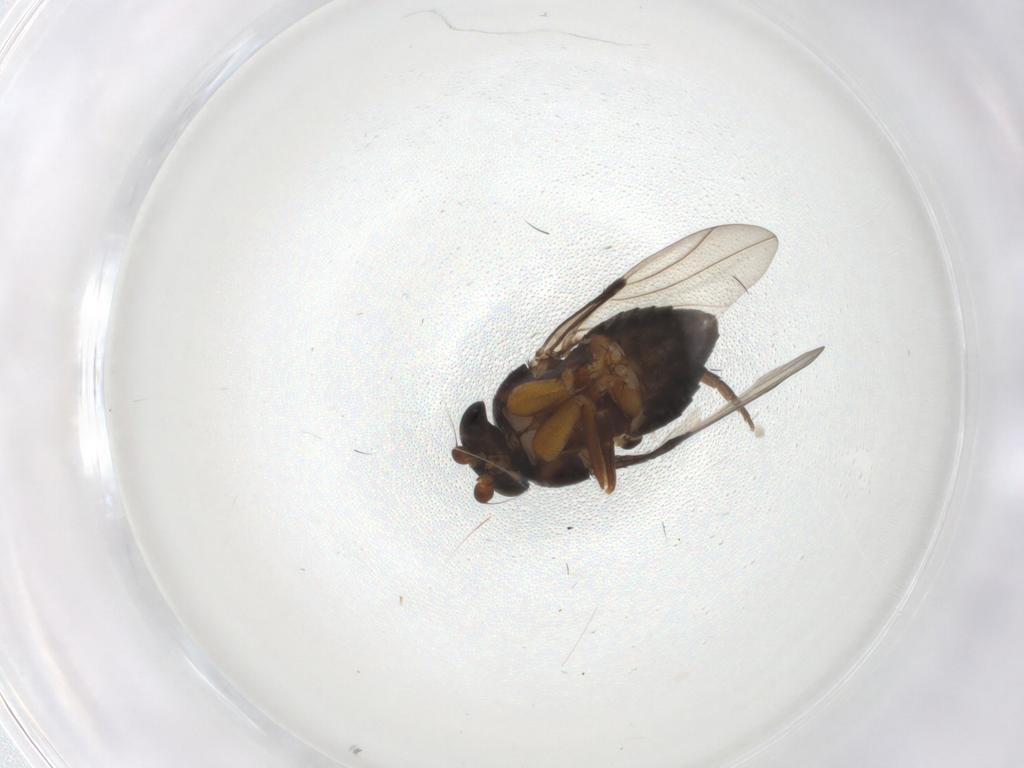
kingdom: Animalia
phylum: Arthropoda
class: Insecta
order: Diptera
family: Phoridae
